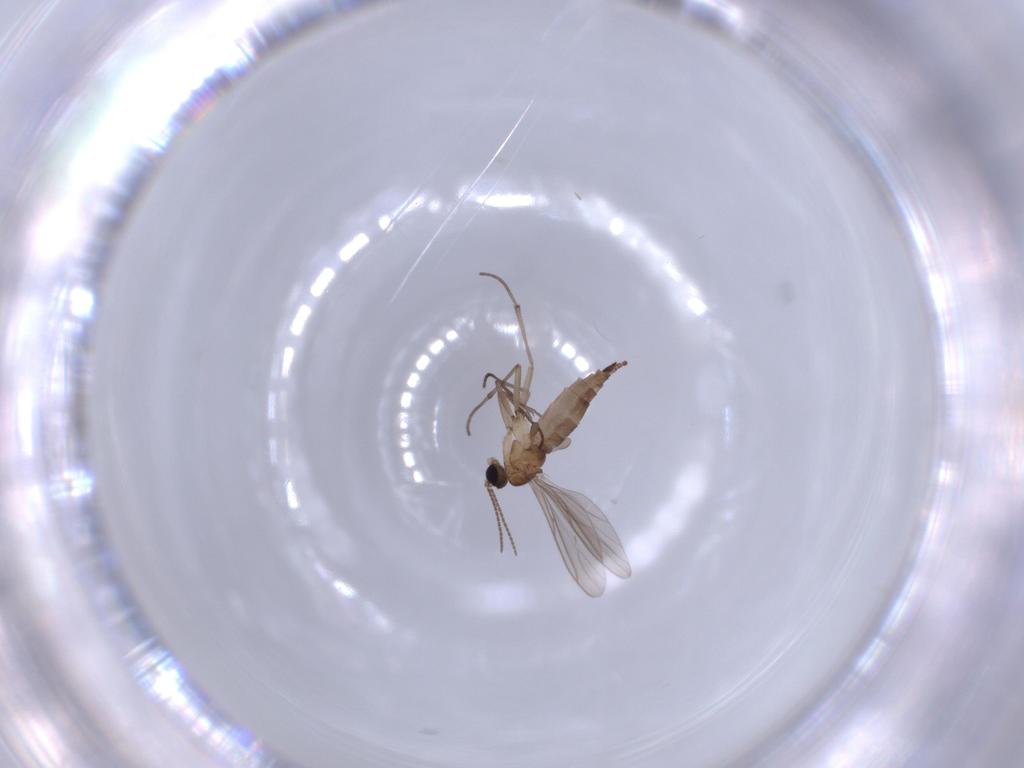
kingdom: Animalia
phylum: Arthropoda
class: Insecta
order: Diptera
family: Sciaridae
